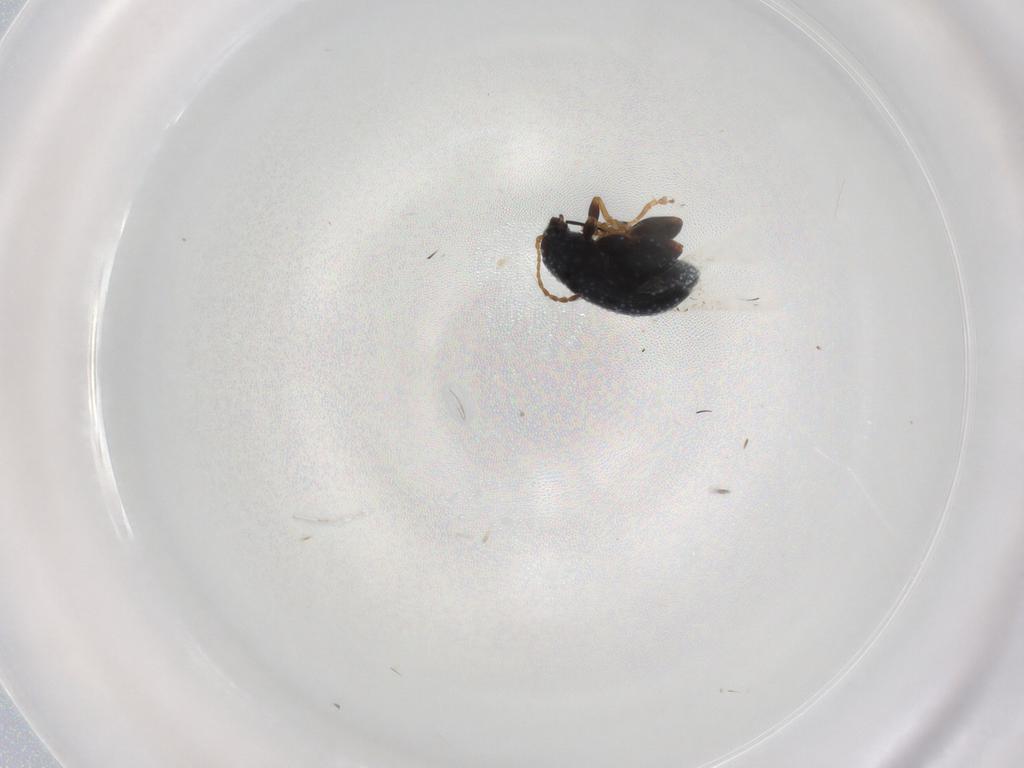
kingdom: Animalia
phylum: Arthropoda
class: Insecta
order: Coleoptera
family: Chrysomelidae
